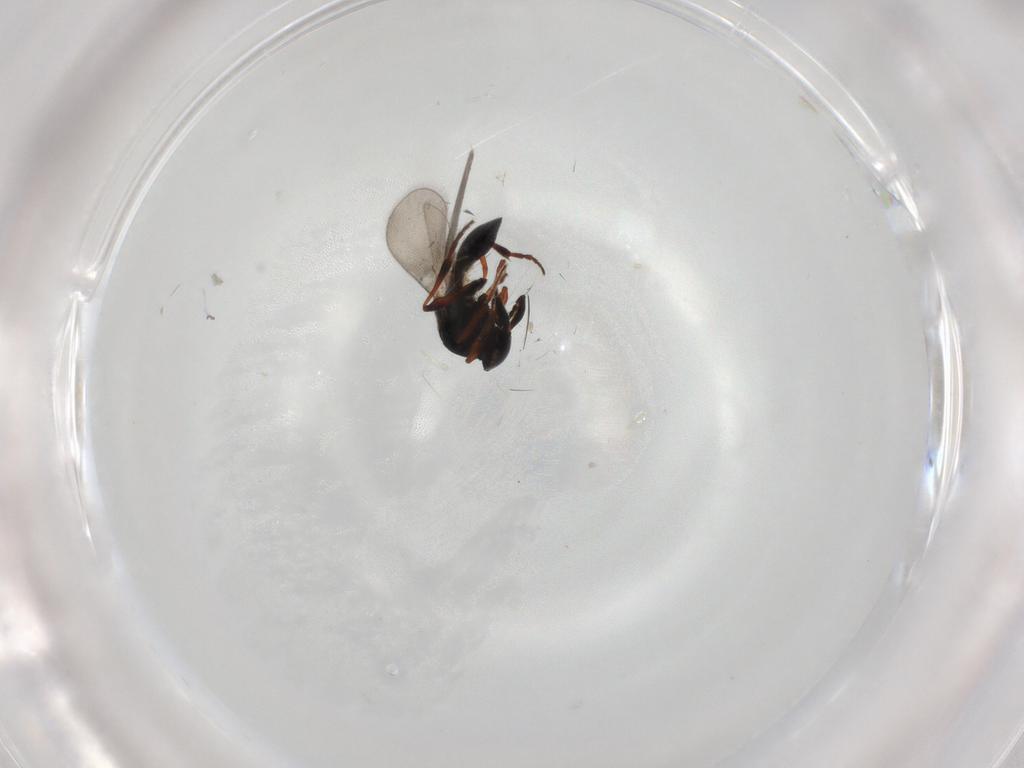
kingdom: Animalia
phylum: Arthropoda
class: Insecta
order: Hymenoptera
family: Platygastridae
